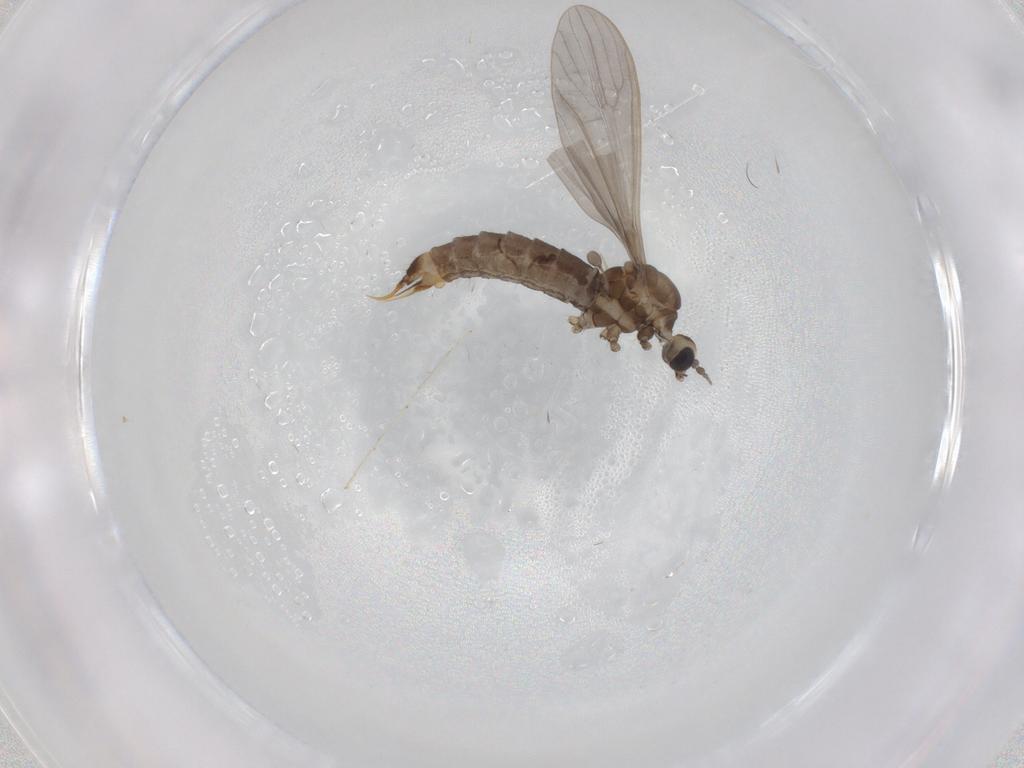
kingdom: Animalia
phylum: Arthropoda
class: Insecta
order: Diptera
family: Limoniidae
